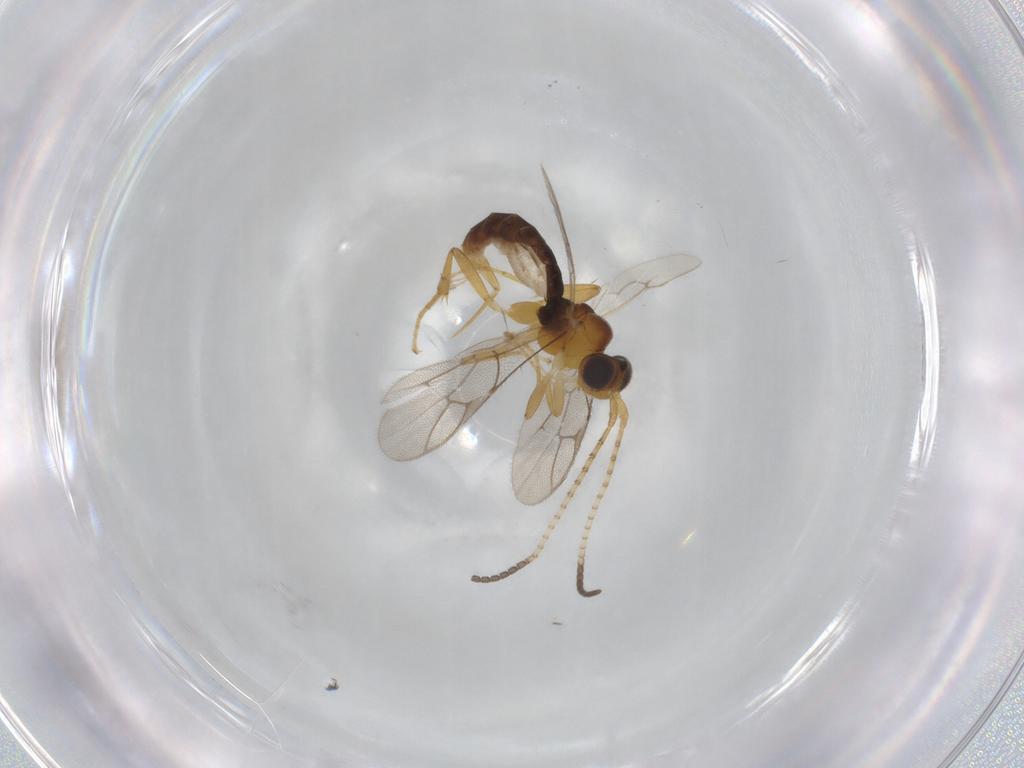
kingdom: Animalia
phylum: Arthropoda
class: Insecta
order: Hymenoptera
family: Ichneumonidae
